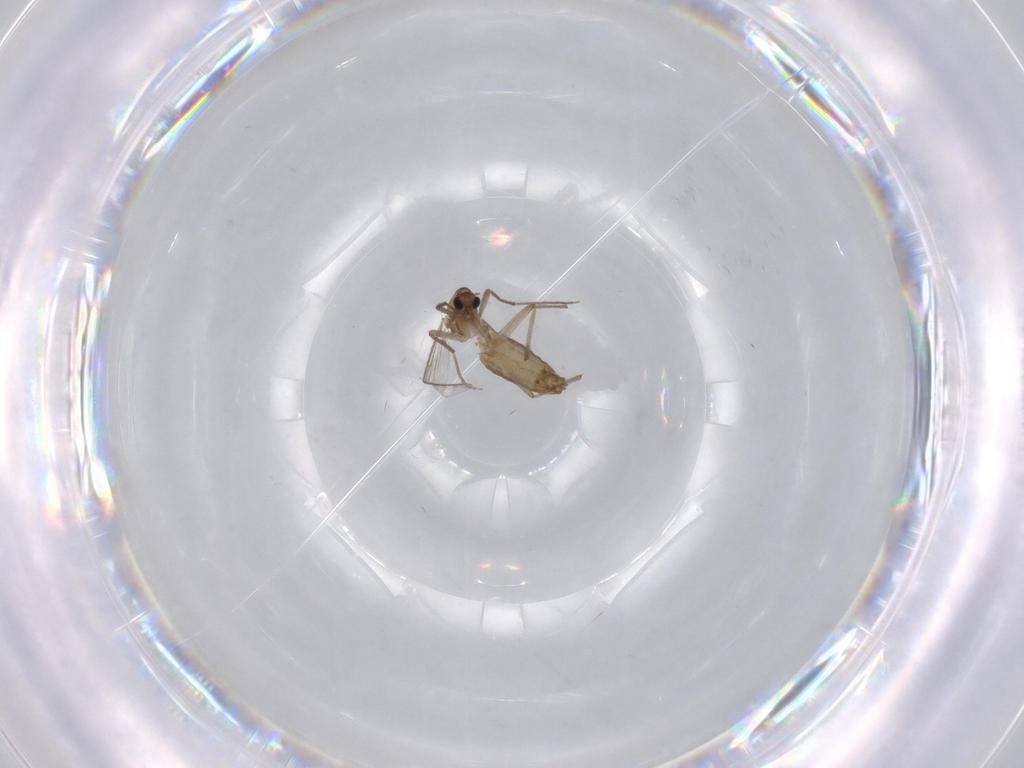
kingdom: Animalia
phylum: Arthropoda
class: Insecta
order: Diptera
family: Chironomidae
